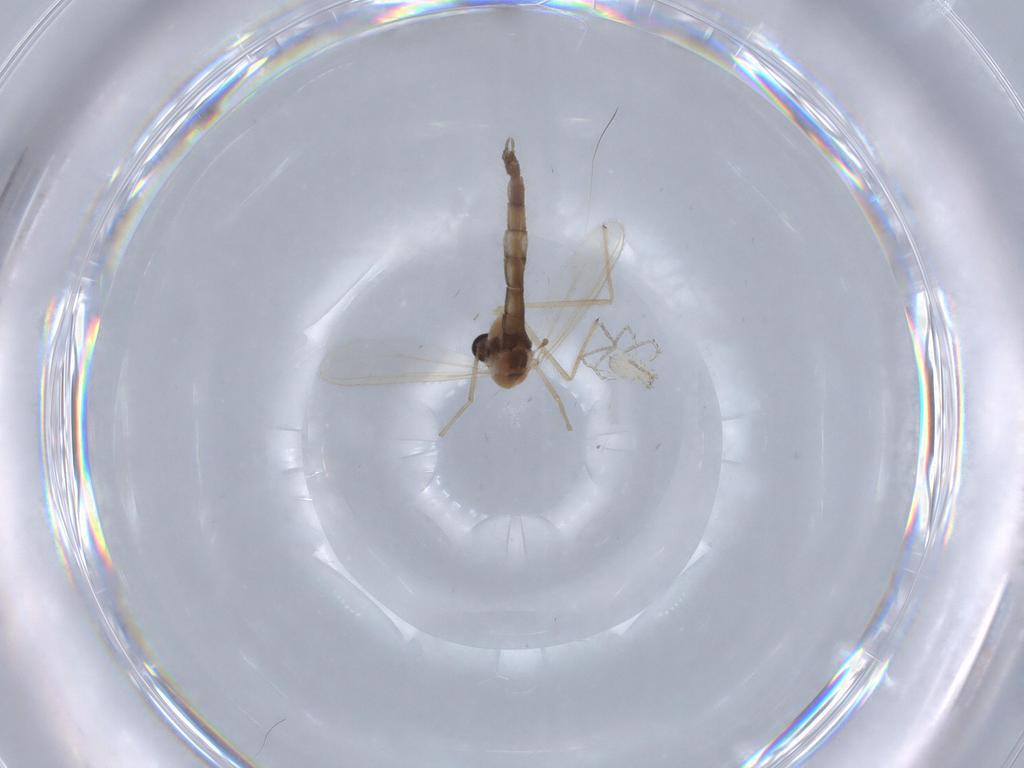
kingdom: Animalia
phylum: Arthropoda
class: Insecta
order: Diptera
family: Chironomidae
